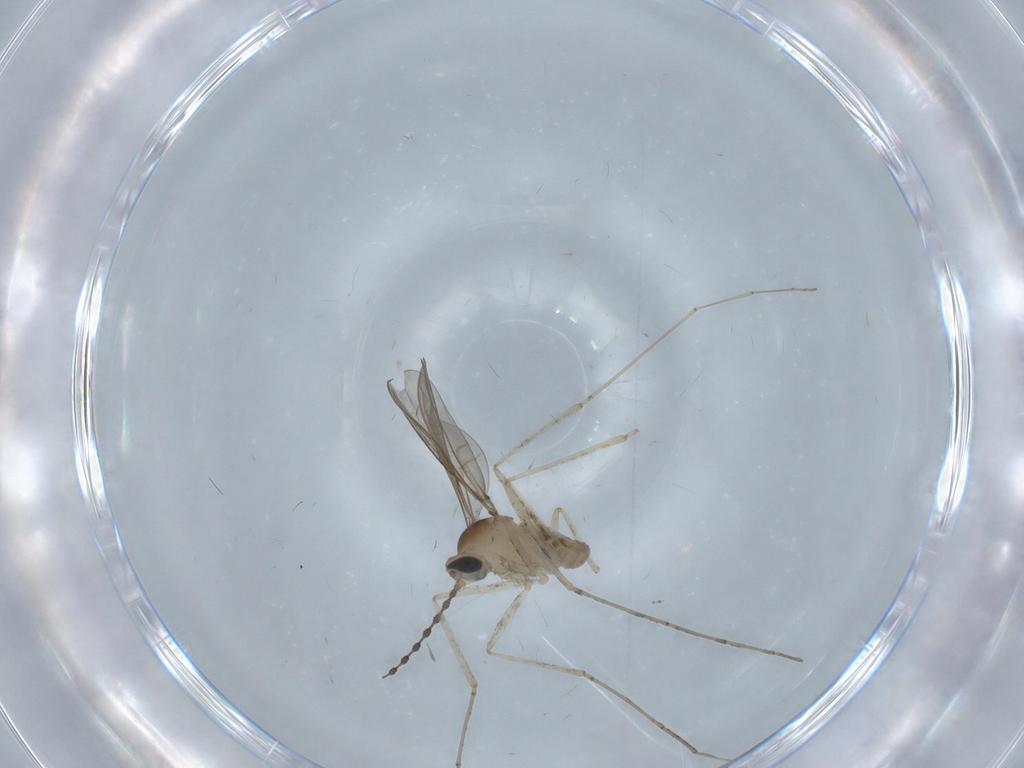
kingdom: Animalia
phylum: Arthropoda
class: Insecta
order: Diptera
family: Cecidomyiidae
